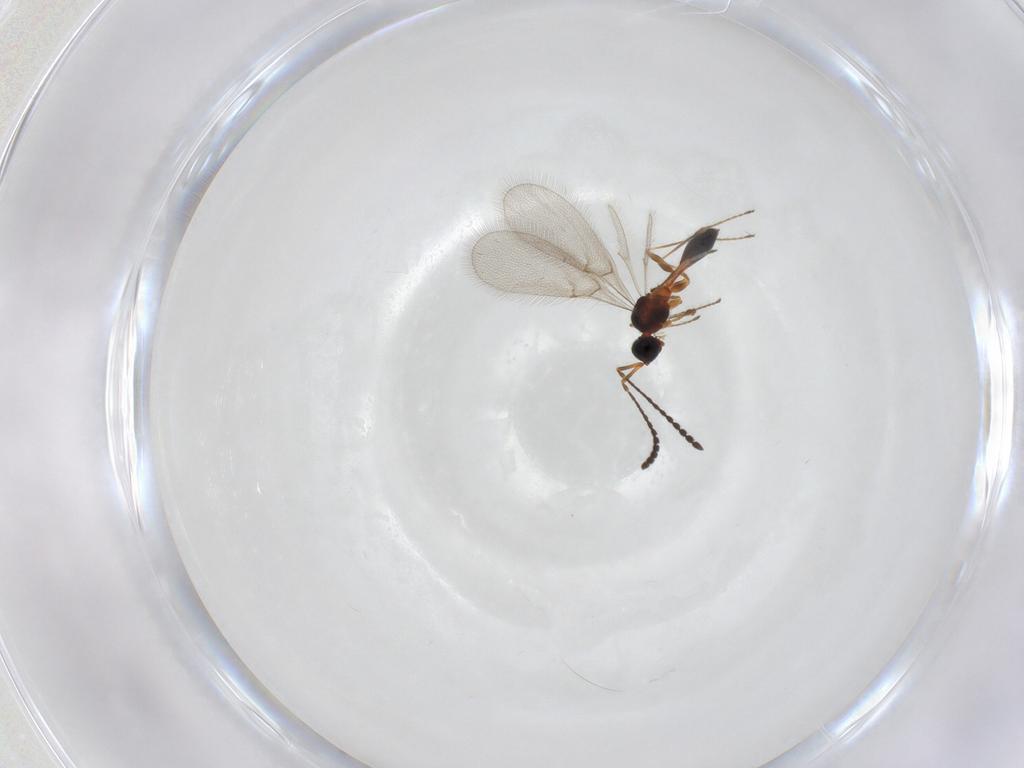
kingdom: Animalia
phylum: Arthropoda
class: Insecta
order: Hymenoptera
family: Diapriidae
